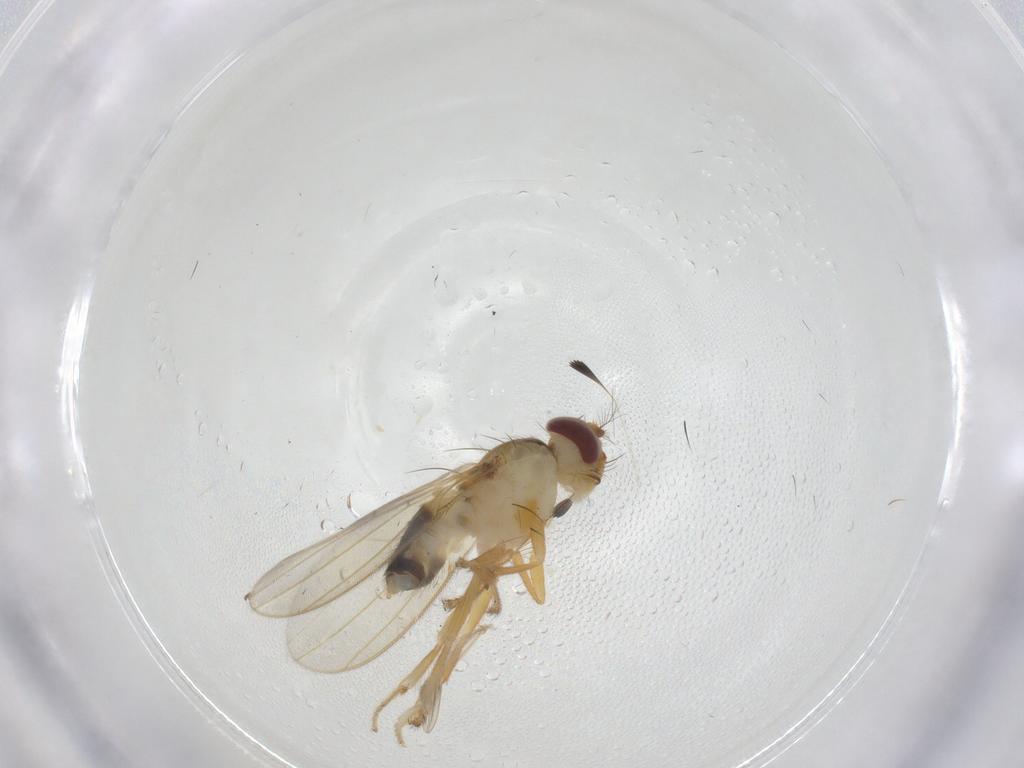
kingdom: Animalia
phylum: Arthropoda
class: Insecta
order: Diptera
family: Periscelididae
